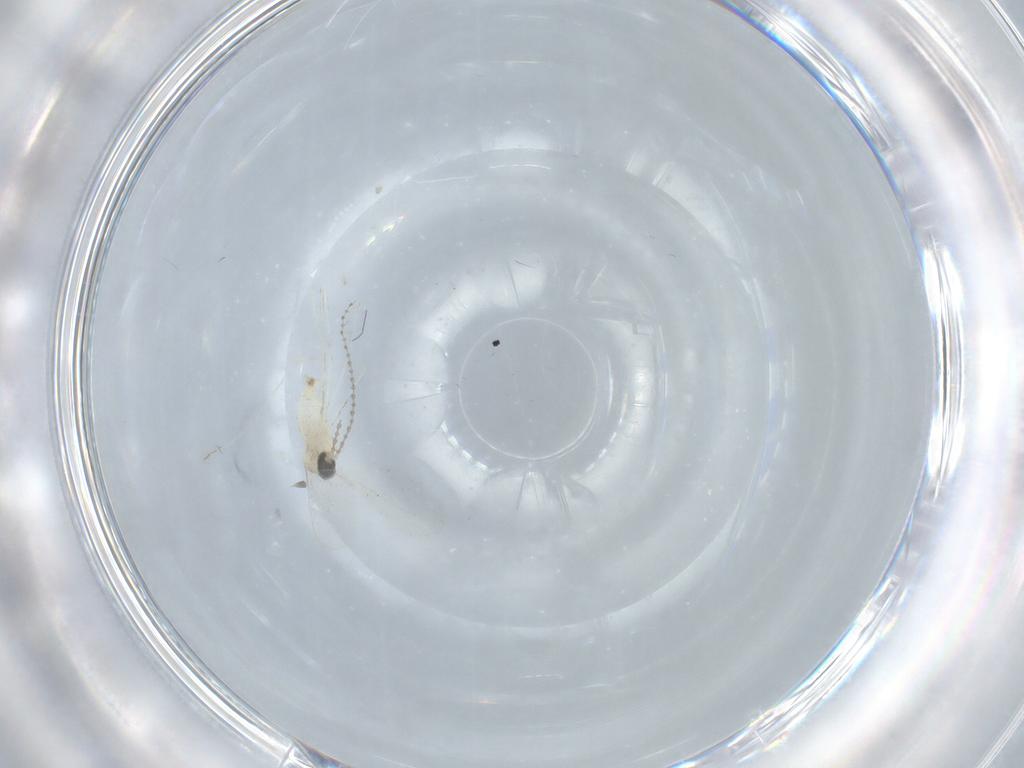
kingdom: Animalia
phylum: Arthropoda
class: Insecta
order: Diptera
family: Cecidomyiidae
